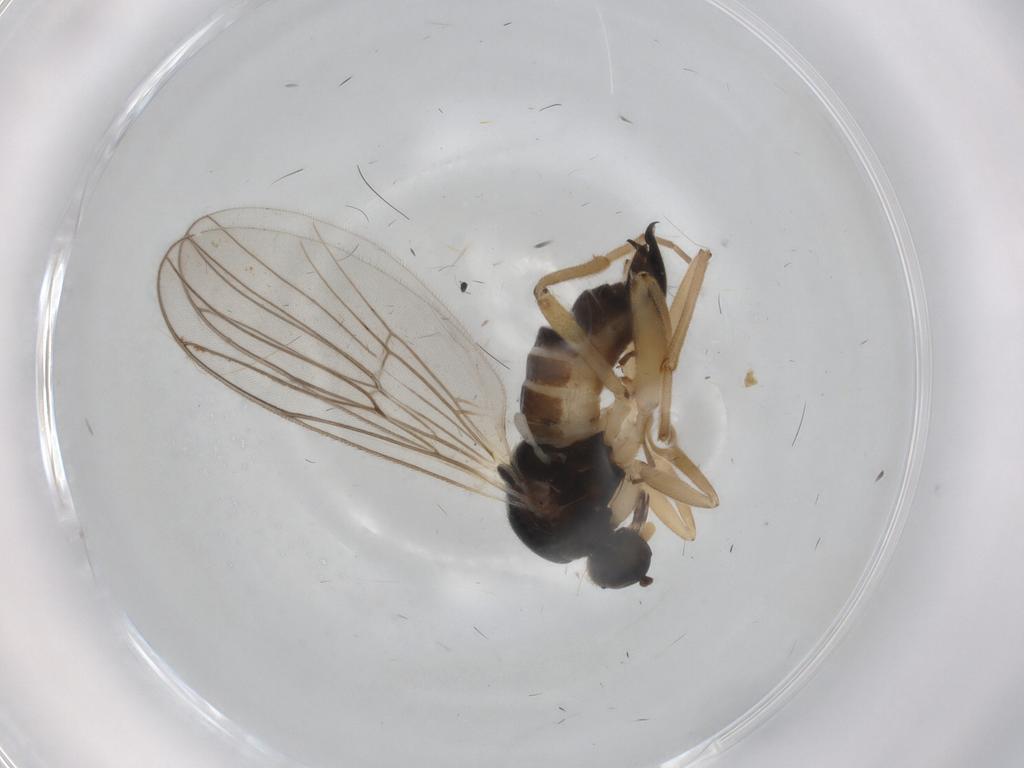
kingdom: Animalia
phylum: Arthropoda
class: Insecta
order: Diptera
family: Hybotidae
